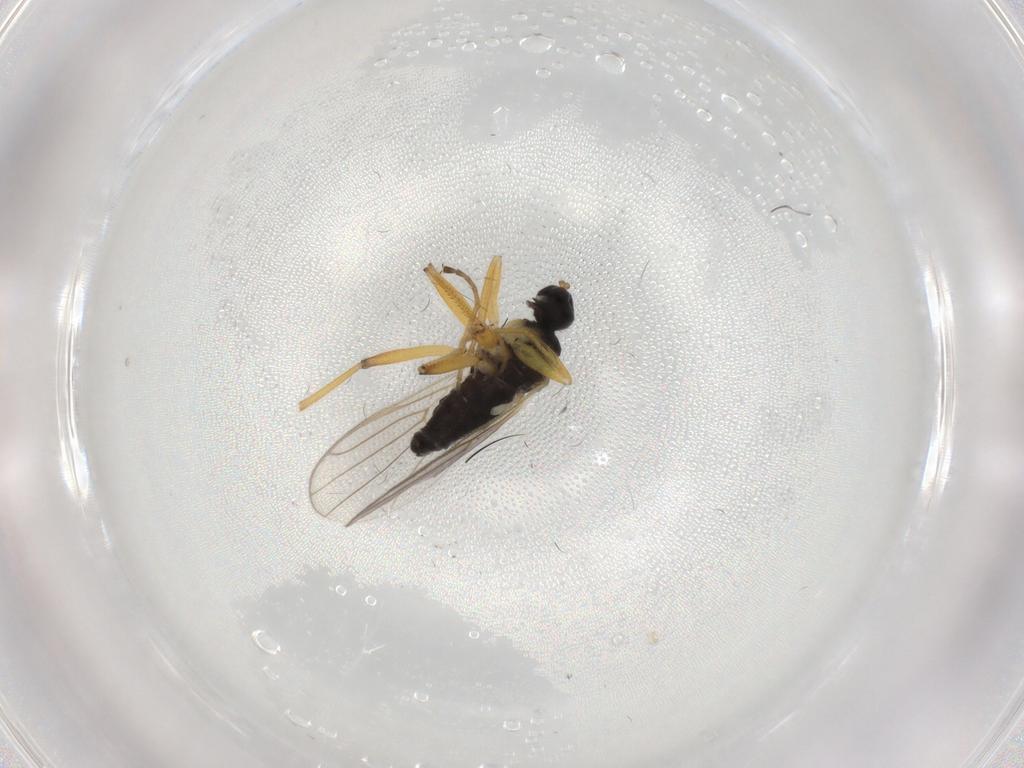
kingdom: Animalia
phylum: Arthropoda
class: Insecta
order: Diptera
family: Hybotidae
